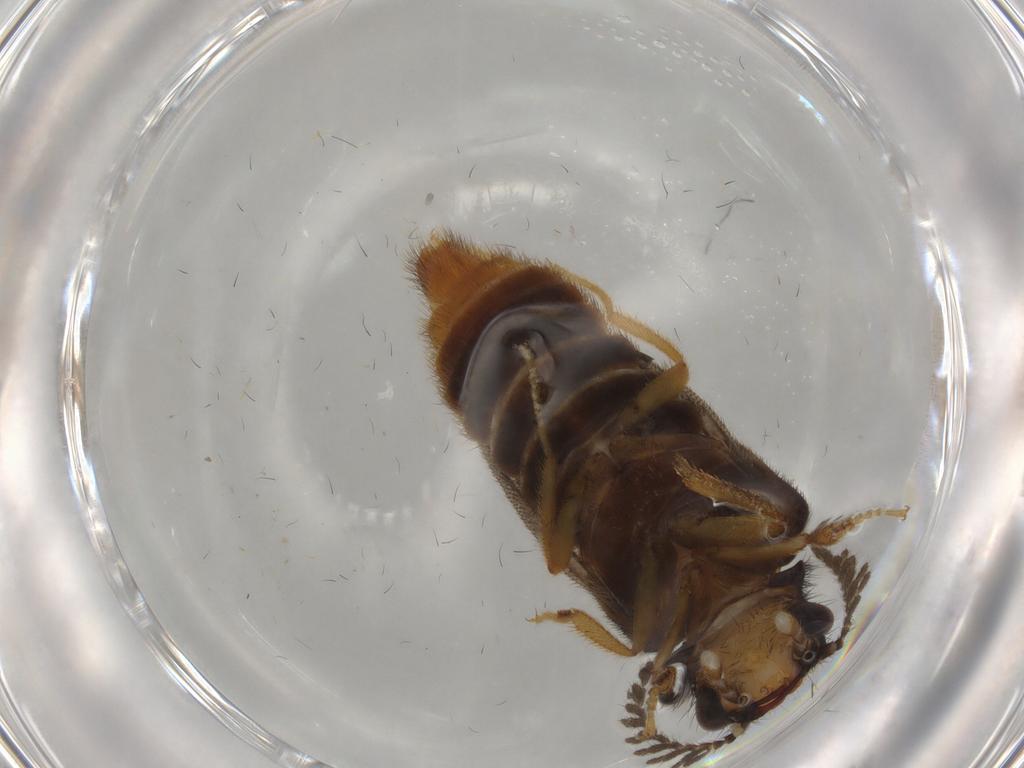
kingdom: Animalia
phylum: Arthropoda
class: Insecta
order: Coleoptera
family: Phengodidae
